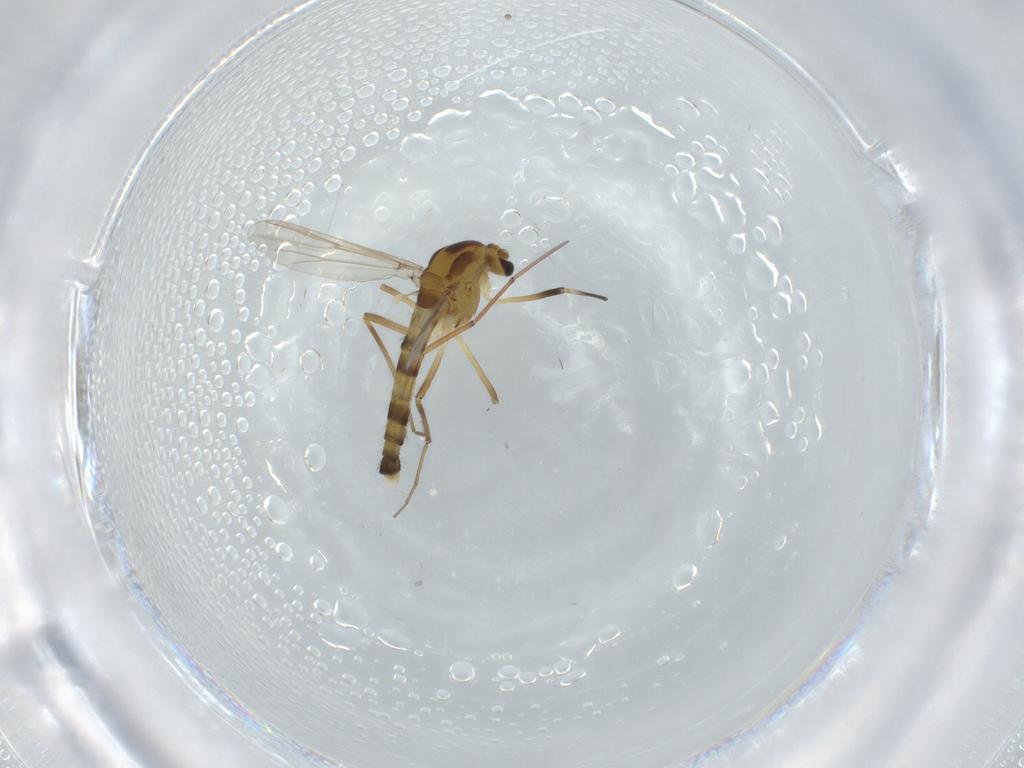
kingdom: Animalia
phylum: Arthropoda
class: Insecta
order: Diptera
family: Chironomidae
